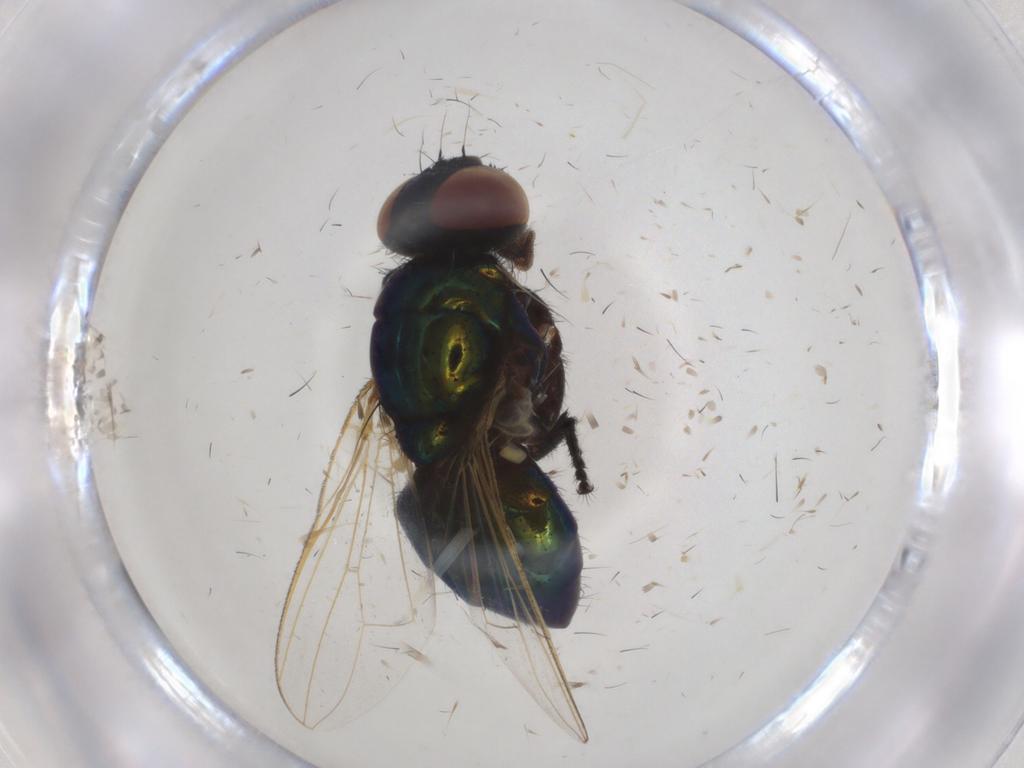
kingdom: Animalia
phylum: Arthropoda
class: Insecta
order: Diptera
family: Muscidae
